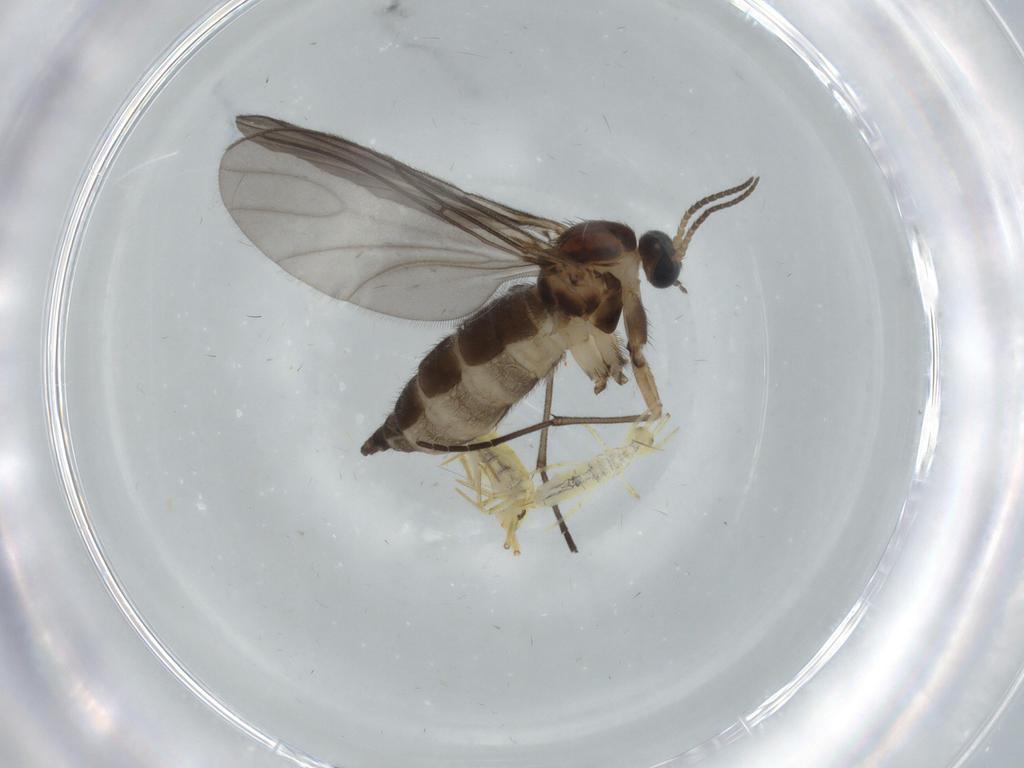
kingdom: Animalia
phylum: Arthropoda
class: Insecta
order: Diptera
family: Sciaridae
